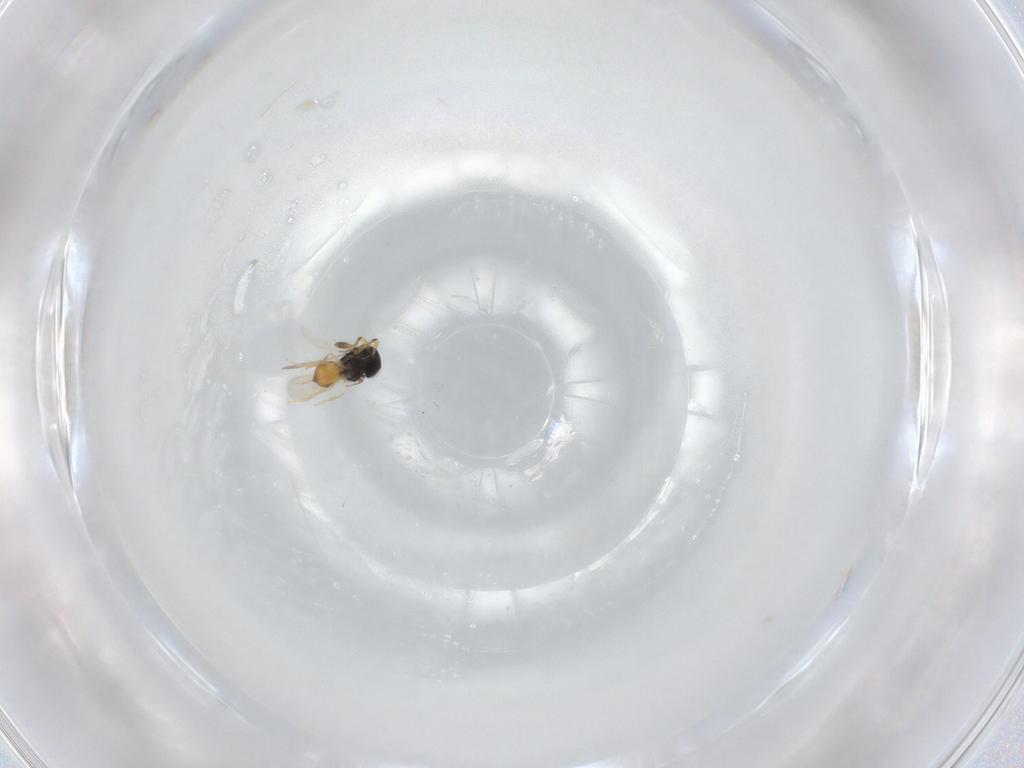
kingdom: Animalia
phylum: Arthropoda
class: Insecta
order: Hymenoptera
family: Scelionidae
